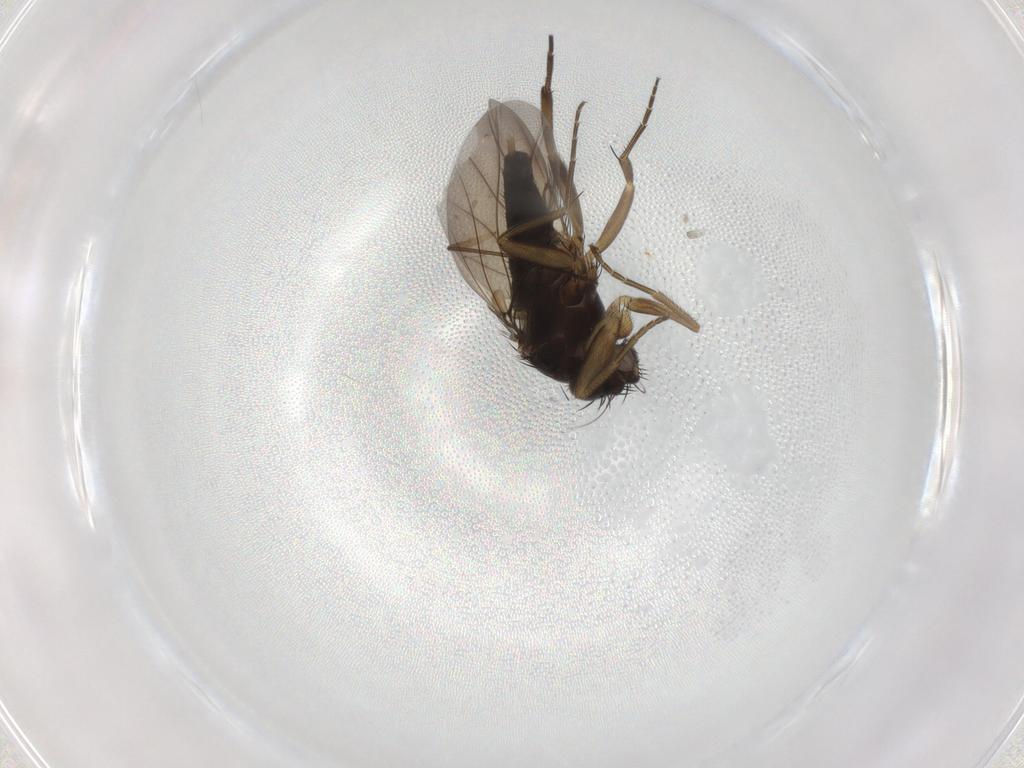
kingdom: Animalia
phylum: Arthropoda
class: Insecta
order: Diptera
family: Phoridae
